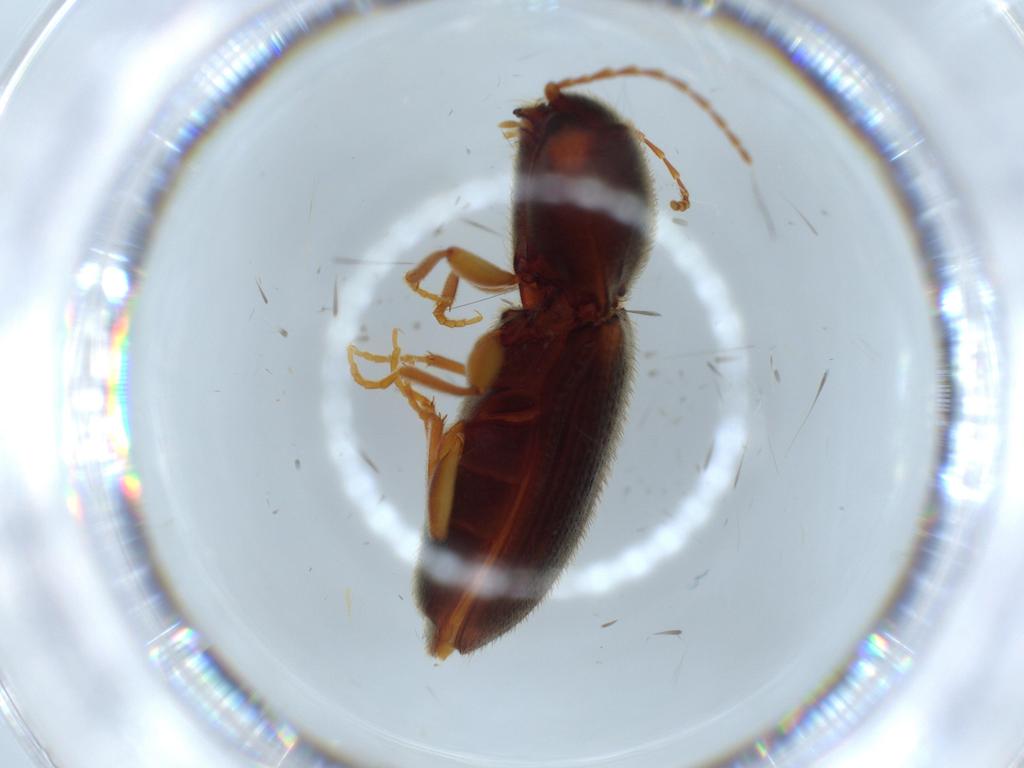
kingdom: Animalia
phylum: Arthropoda
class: Insecta
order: Coleoptera
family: Elateridae
